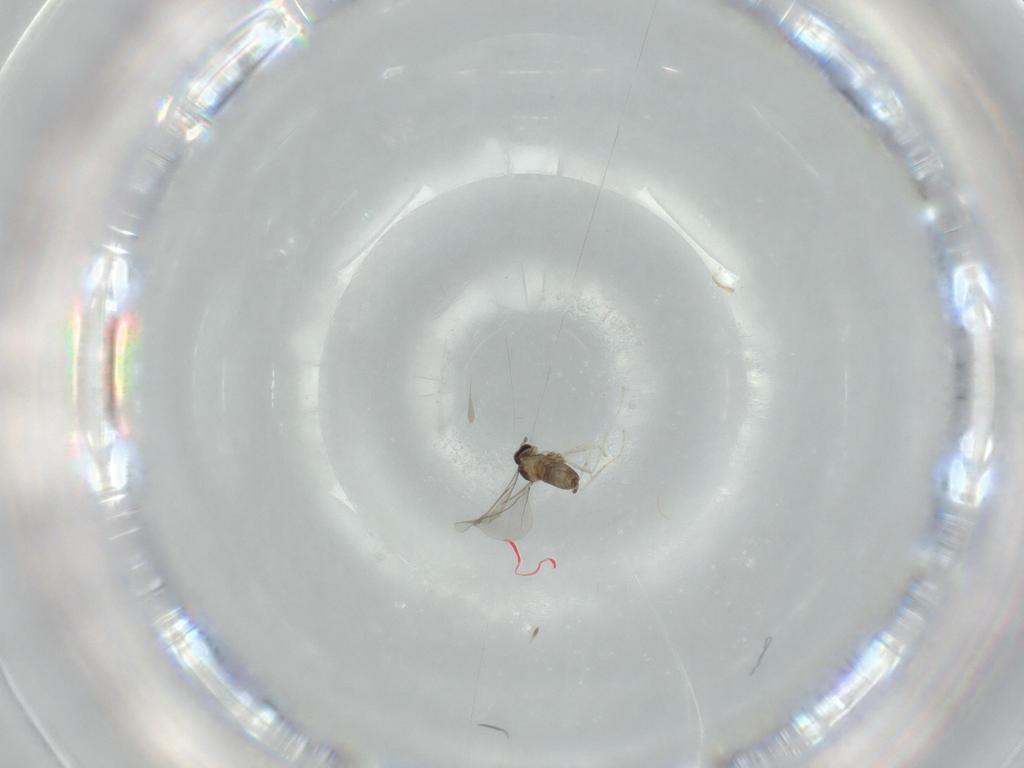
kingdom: Animalia
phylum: Arthropoda
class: Insecta
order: Diptera
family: Cecidomyiidae
